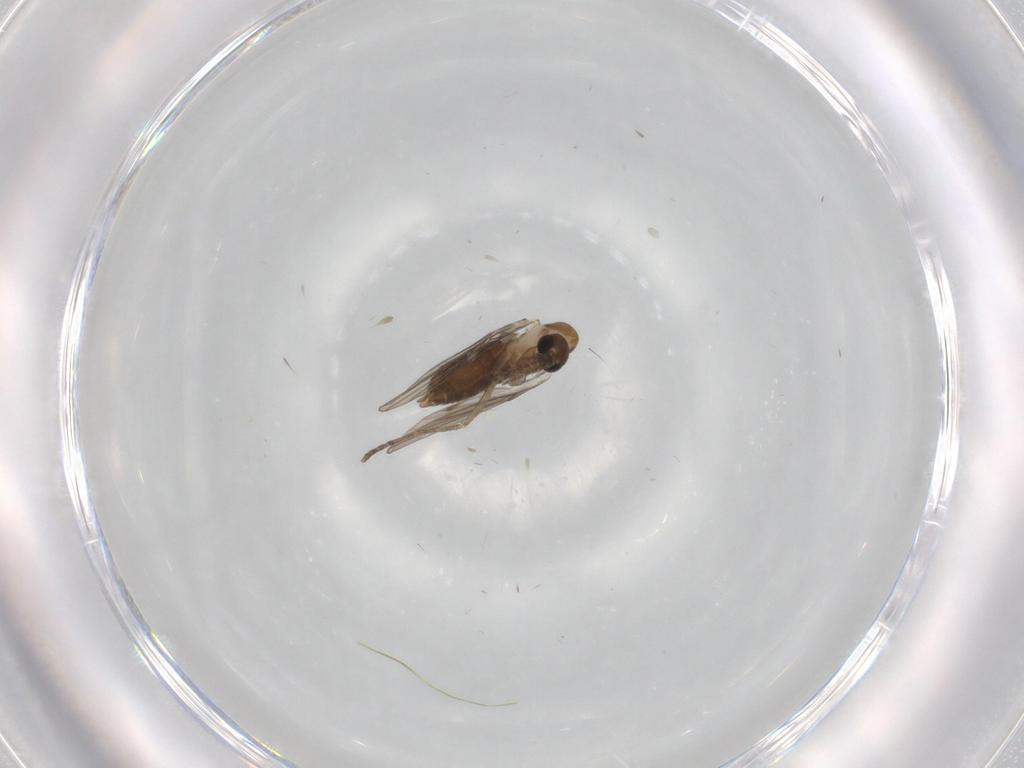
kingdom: Animalia
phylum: Arthropoda
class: Insecta
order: Diptera
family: Psychodidae
